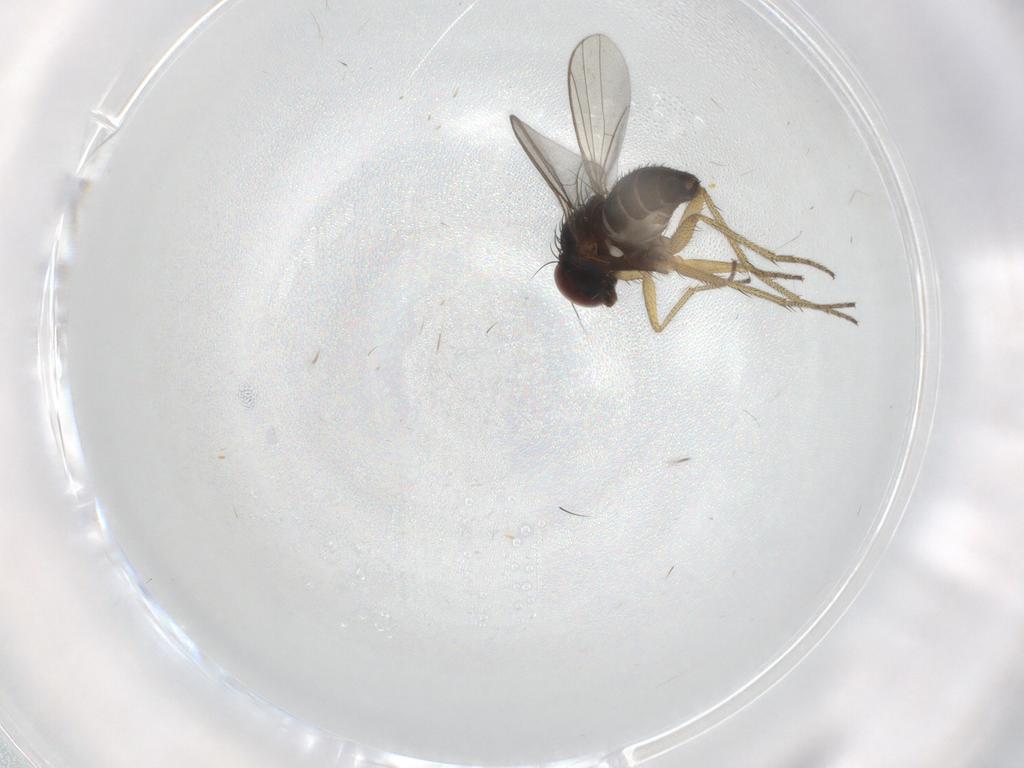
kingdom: Animalia
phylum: Arthropoda
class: Insecta
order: Diptera
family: Dolichopodidae
